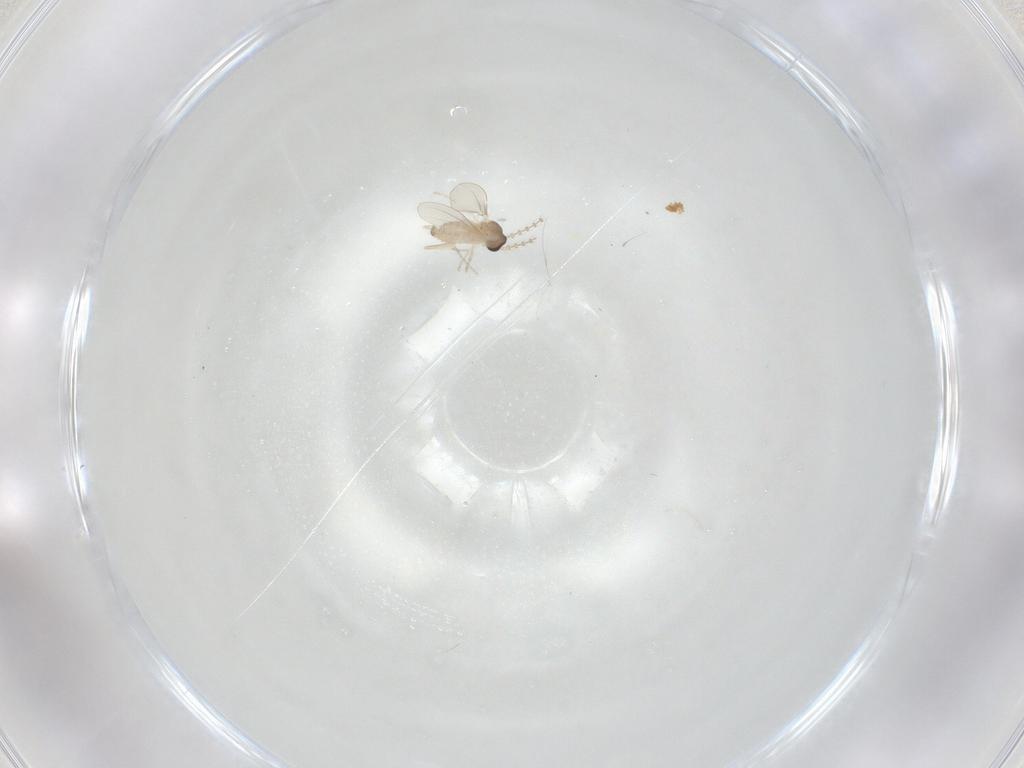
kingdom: Animalia
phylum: Arthropoda
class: Insecta
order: Diptera
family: Cecidomyiidae
